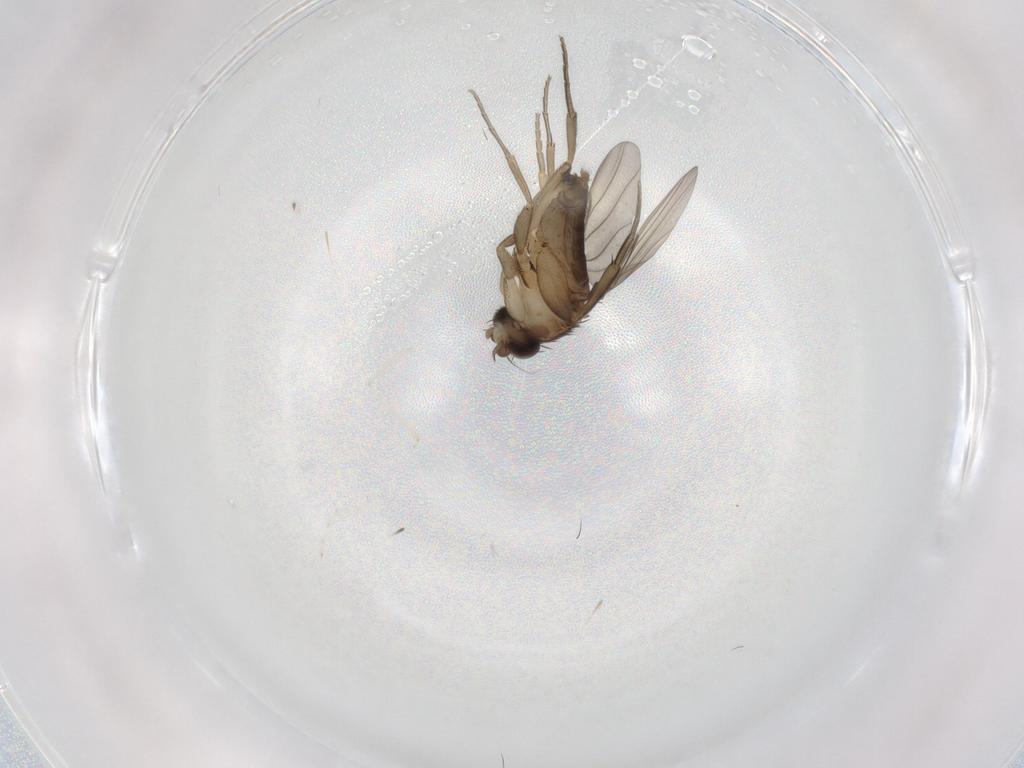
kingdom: Animalia
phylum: Arthropoda
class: Insecta
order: Diptera
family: Phoridae
